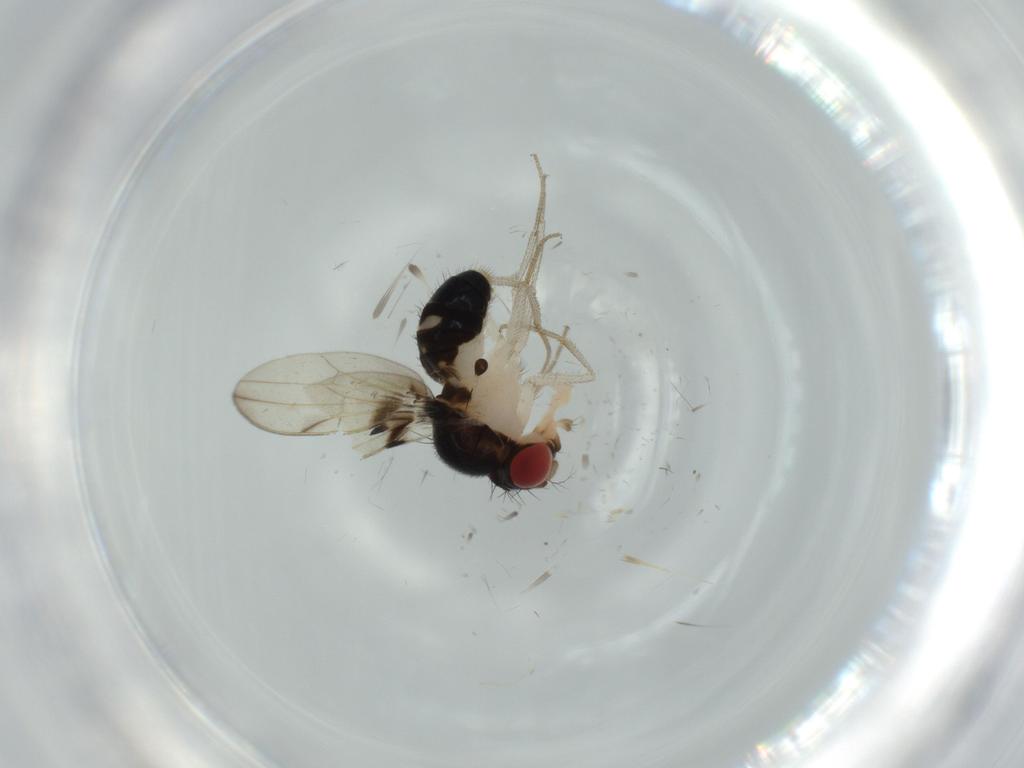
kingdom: Animalia
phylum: Arthropoda
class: Insecta
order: Diptera
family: Drosophilidae
